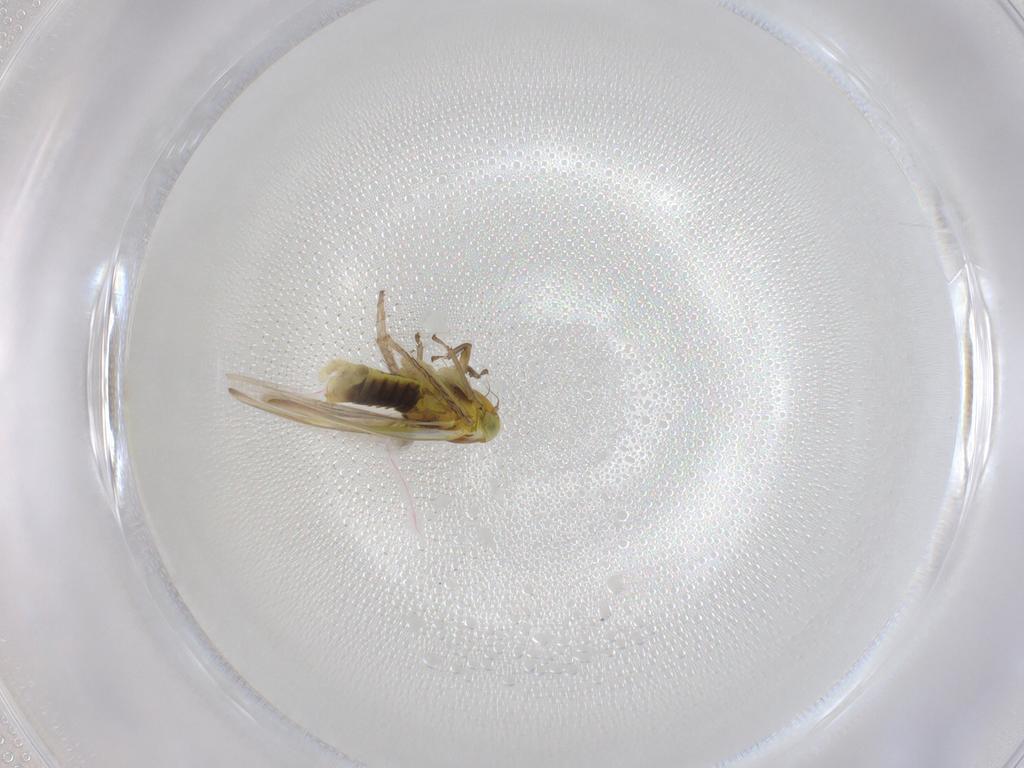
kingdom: Animalia
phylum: Arthropoda
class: Insecta
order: Hemiptera
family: Cicadellidae
